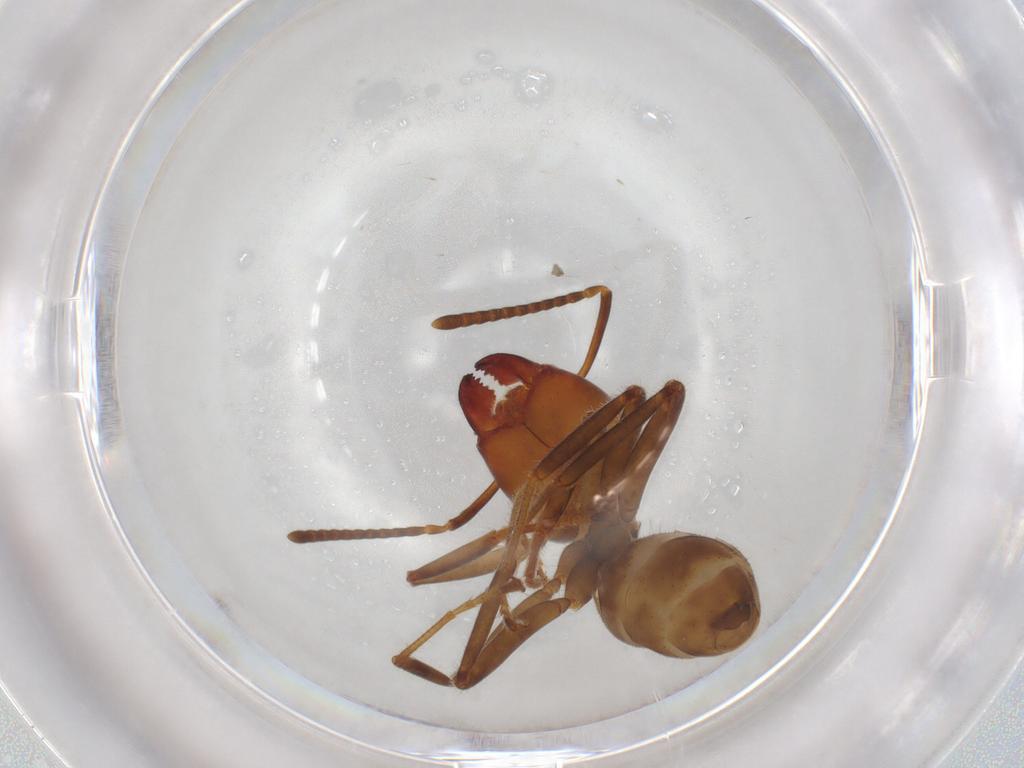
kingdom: Animalia
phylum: Arthropoda
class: Insecta
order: Hymenoptera
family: Formicidae
